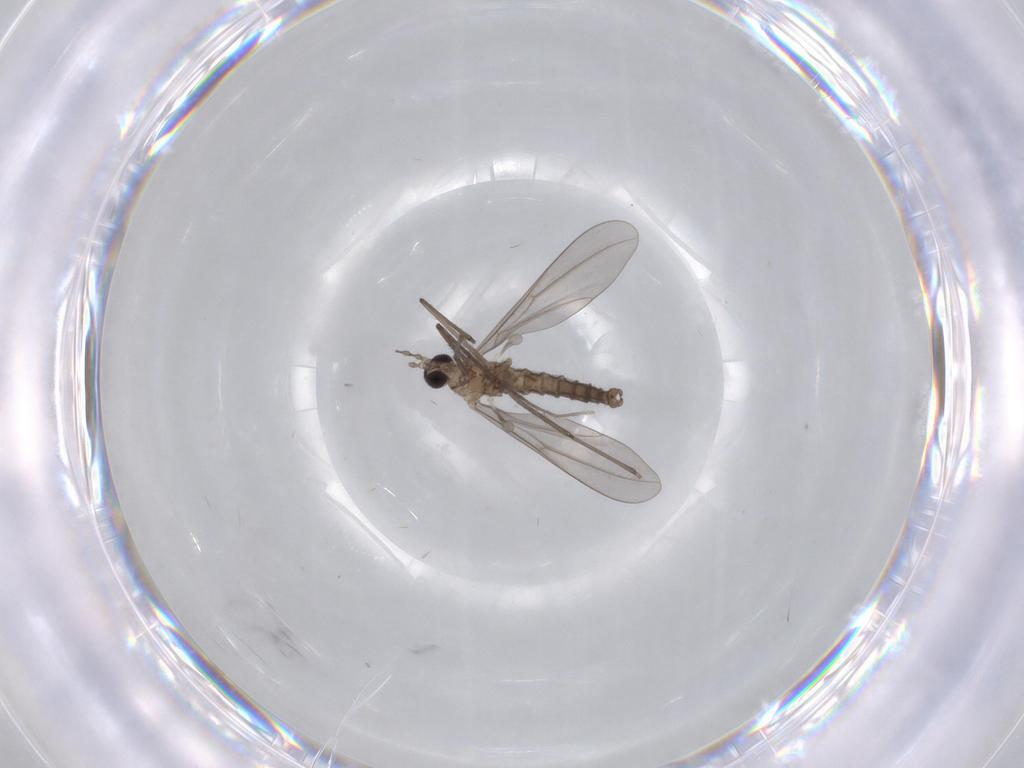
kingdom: Animalia
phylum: Arthropoda
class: Insecta
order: Diptera
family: Cecidomyiidae
